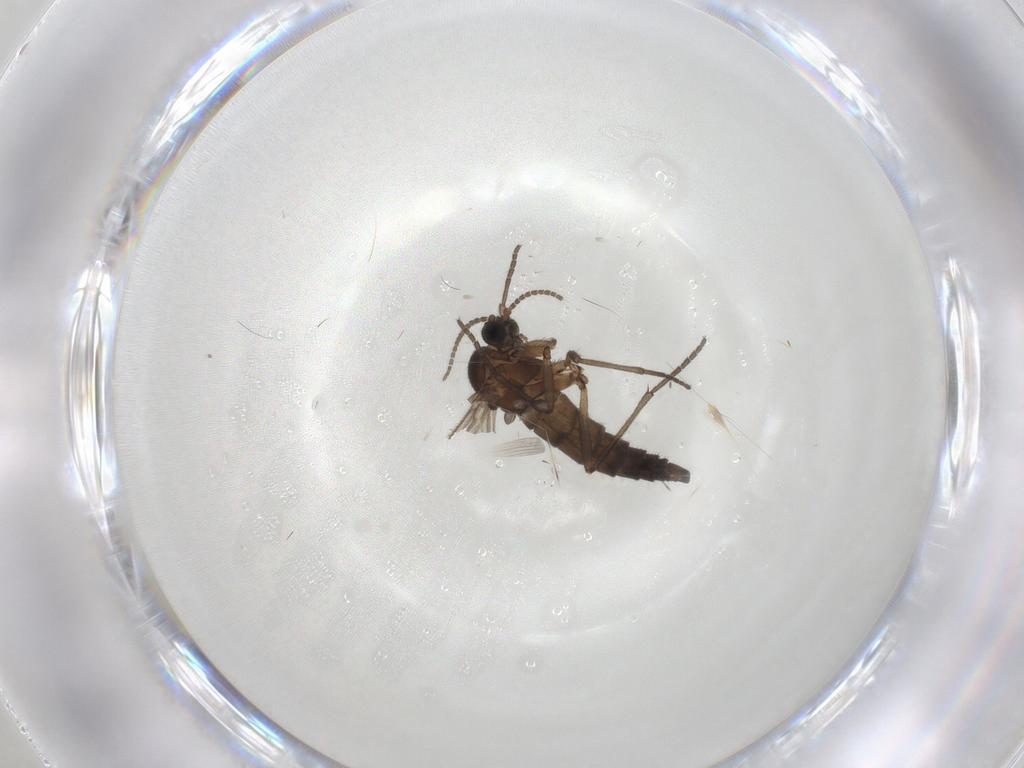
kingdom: Animalia
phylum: Arthropoda
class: Insecta
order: Diptera
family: Sciaridae
